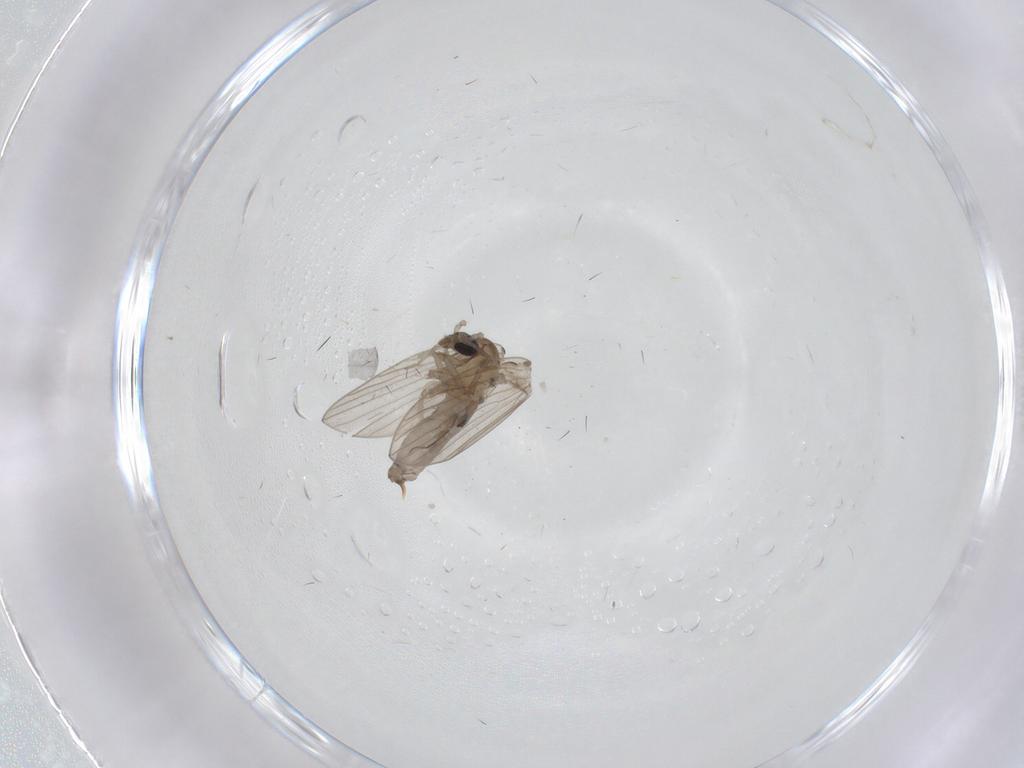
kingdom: Animalia
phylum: Arthropoda
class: Insecta
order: Diptera
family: Psychodidae
